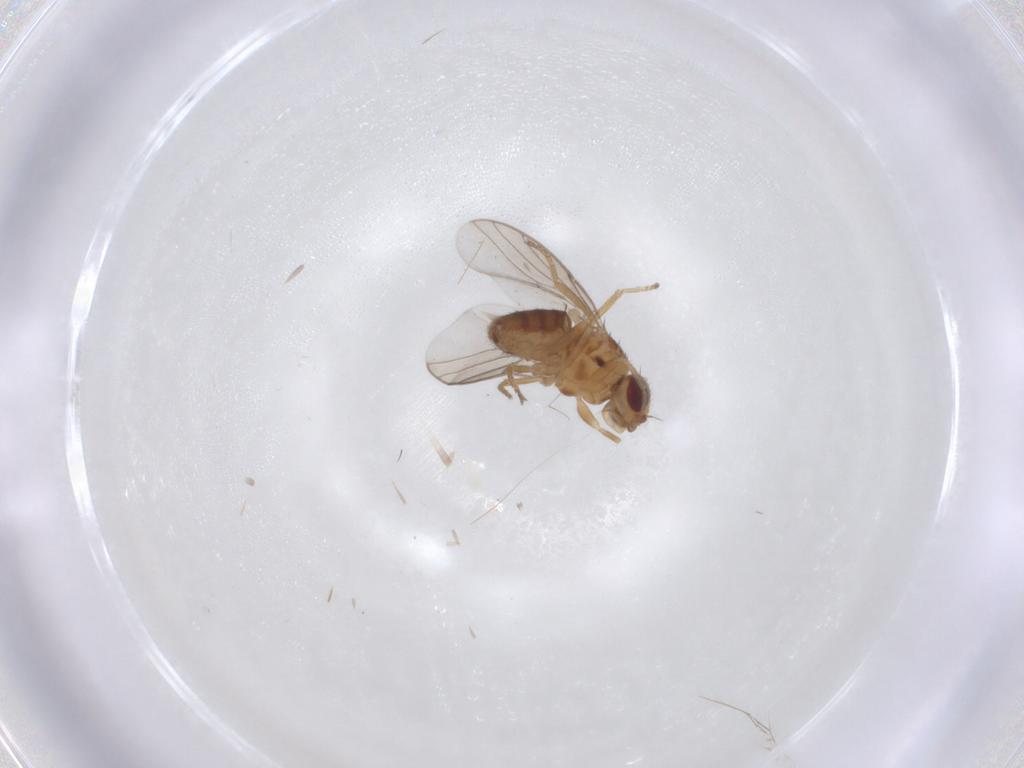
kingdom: Animalia
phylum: Arthropoda
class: Insecta
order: Diptera
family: Chloropidae
